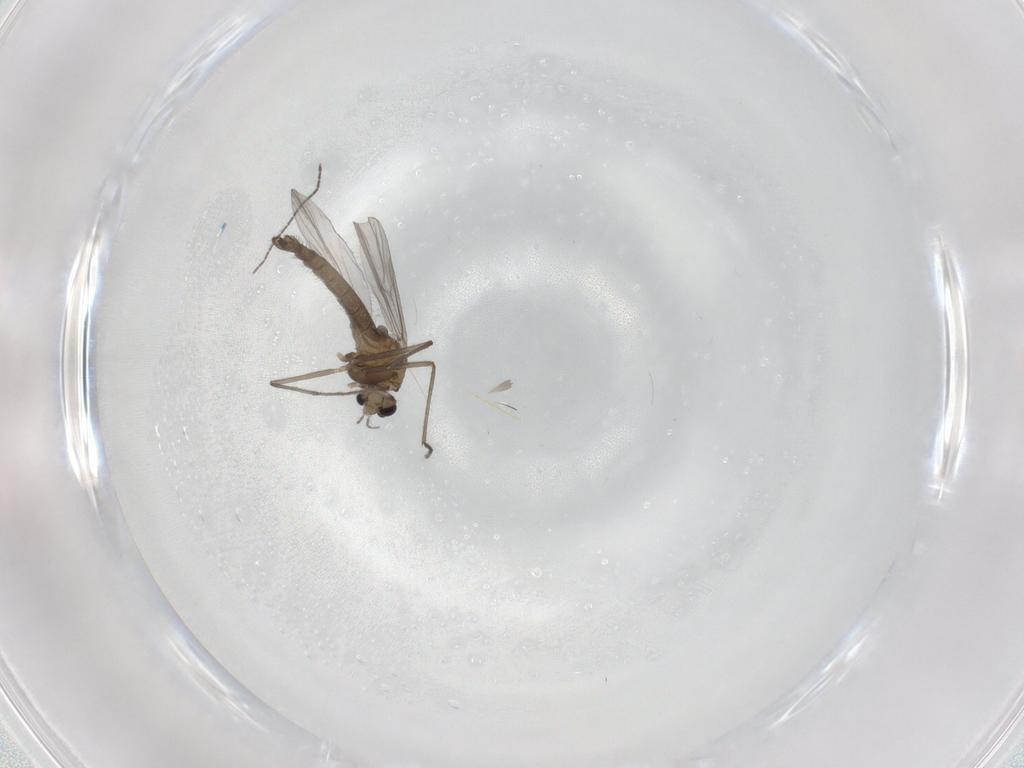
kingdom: Animalia
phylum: Arthropoda
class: Insecta
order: Diptera
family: Chironomidae
